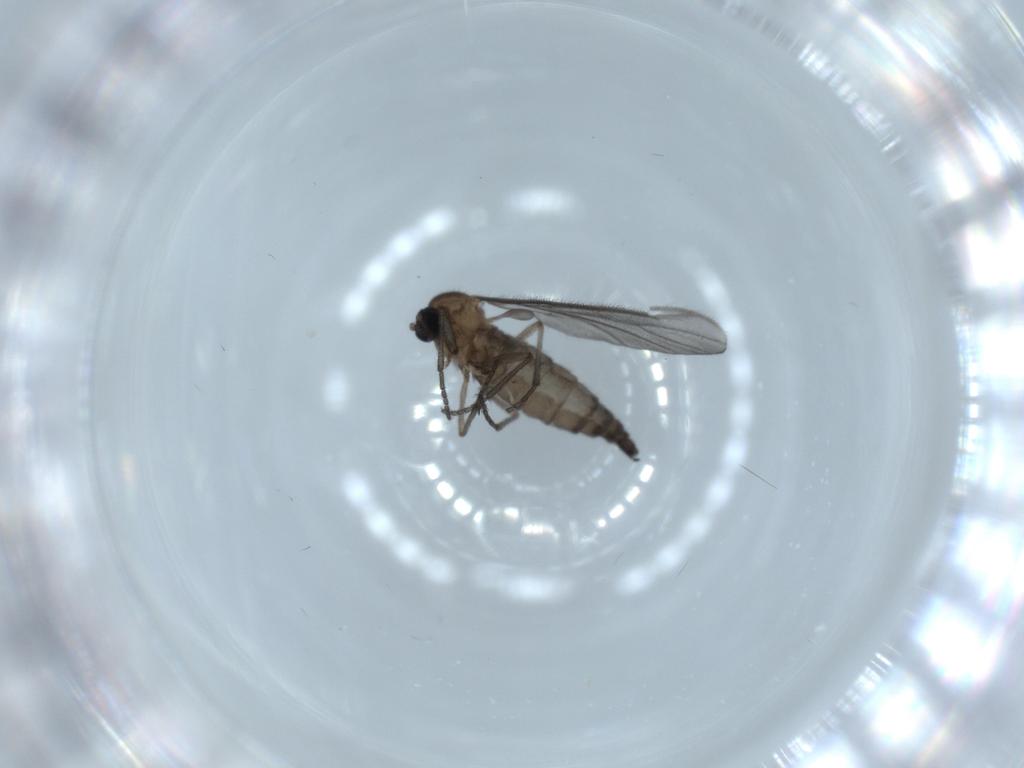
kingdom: Animalia
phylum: Arthropoda
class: Insecta
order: Diptera
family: Sciaridae
